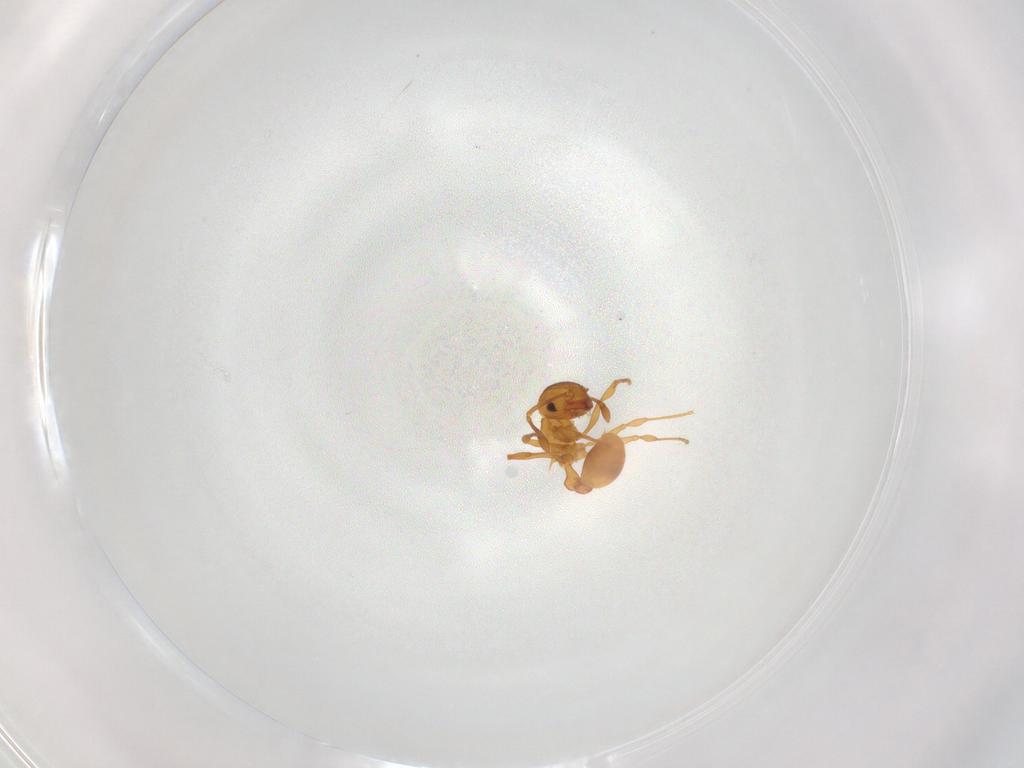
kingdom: Animalia
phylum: Arthropoda
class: Insecta
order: Hymenoptera
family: Formicidae
